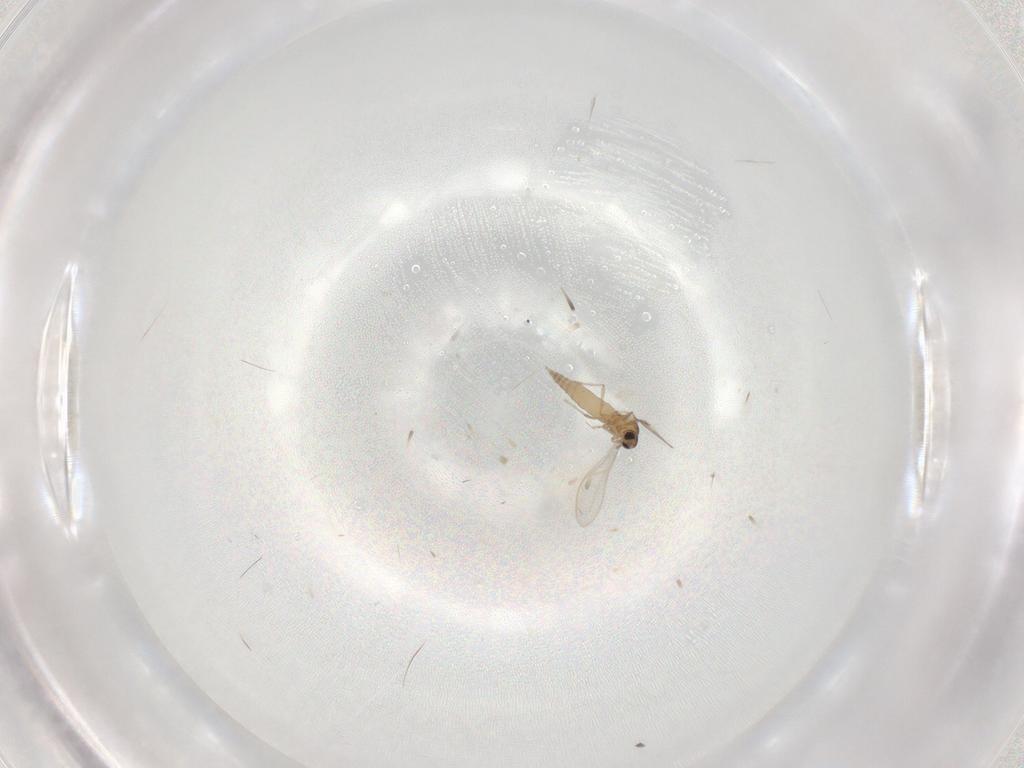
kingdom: Animalia
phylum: Arthropoda
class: Insecta
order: Diptera
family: Cecidomyiidae
